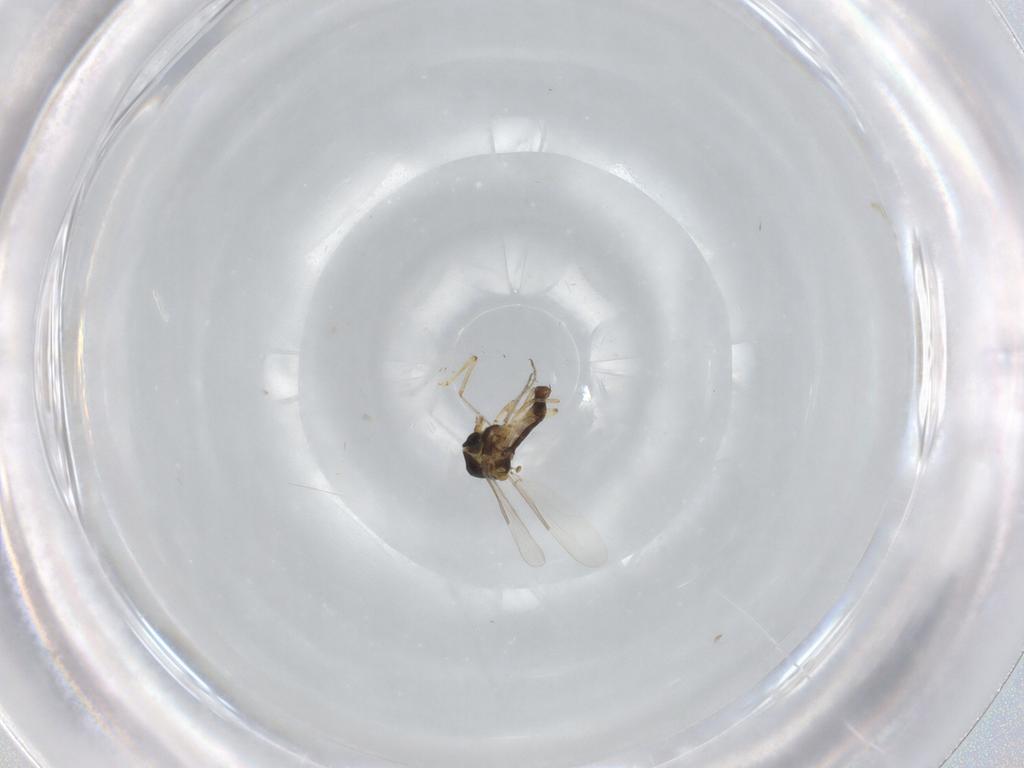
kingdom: Animalia
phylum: Arthropoda
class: Insecta
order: Diptera
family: Ceratopogonidae
